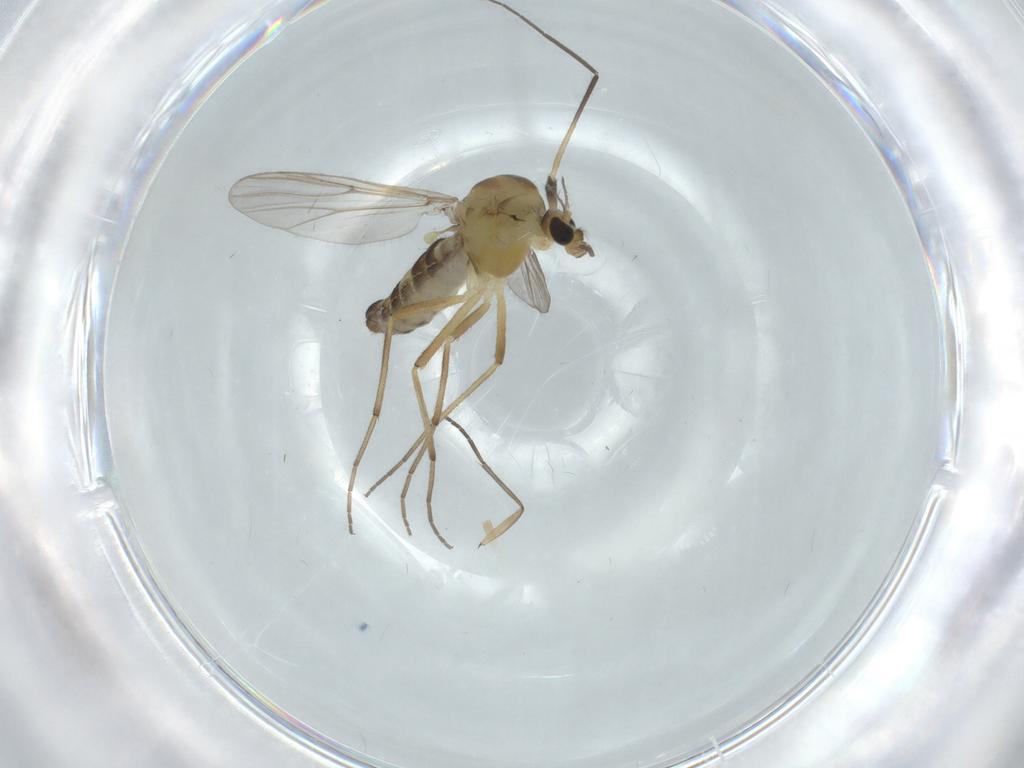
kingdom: Animalia
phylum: Arthropoda
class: Insecta
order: Diptera
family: Chironomidae
